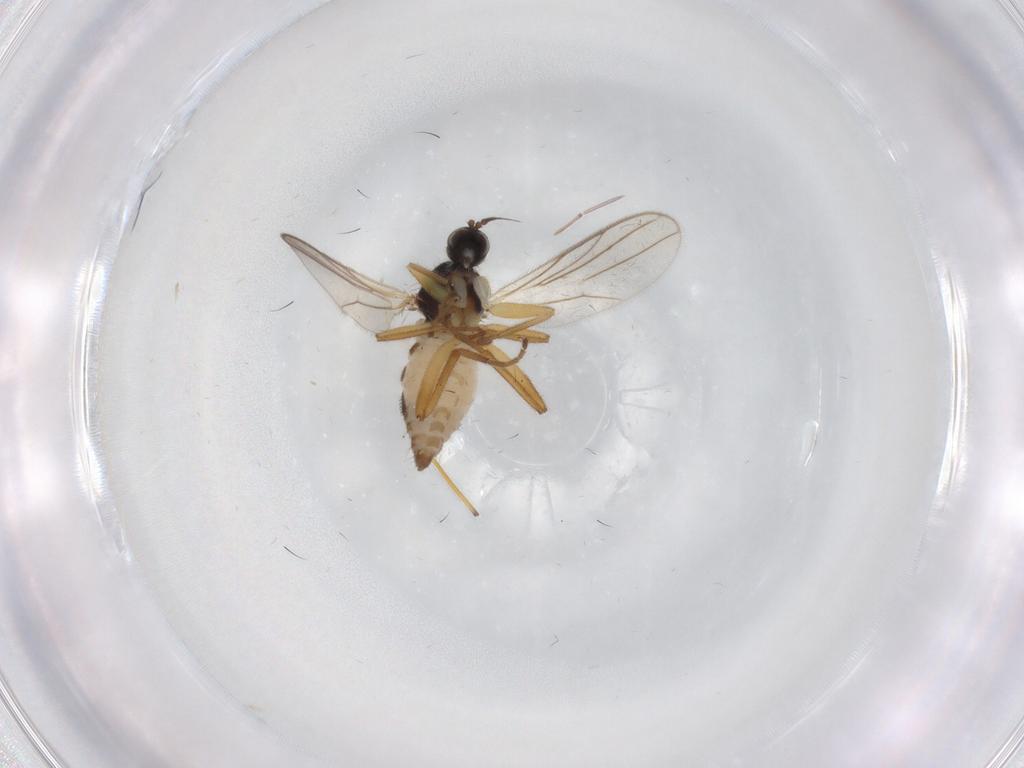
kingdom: Animalia
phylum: Arthropoda
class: Insecta
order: Diptera
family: Hybotidae
